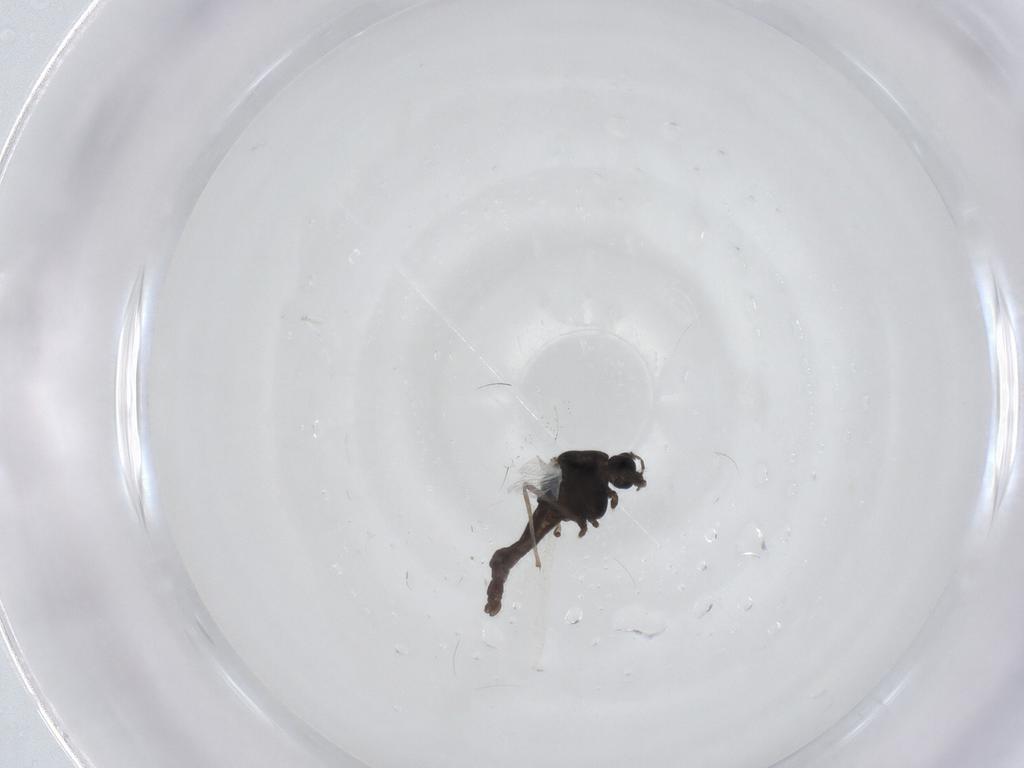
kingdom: Animalia
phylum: Arthropoda
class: Insecta
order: Diptera
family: Chironomidae
